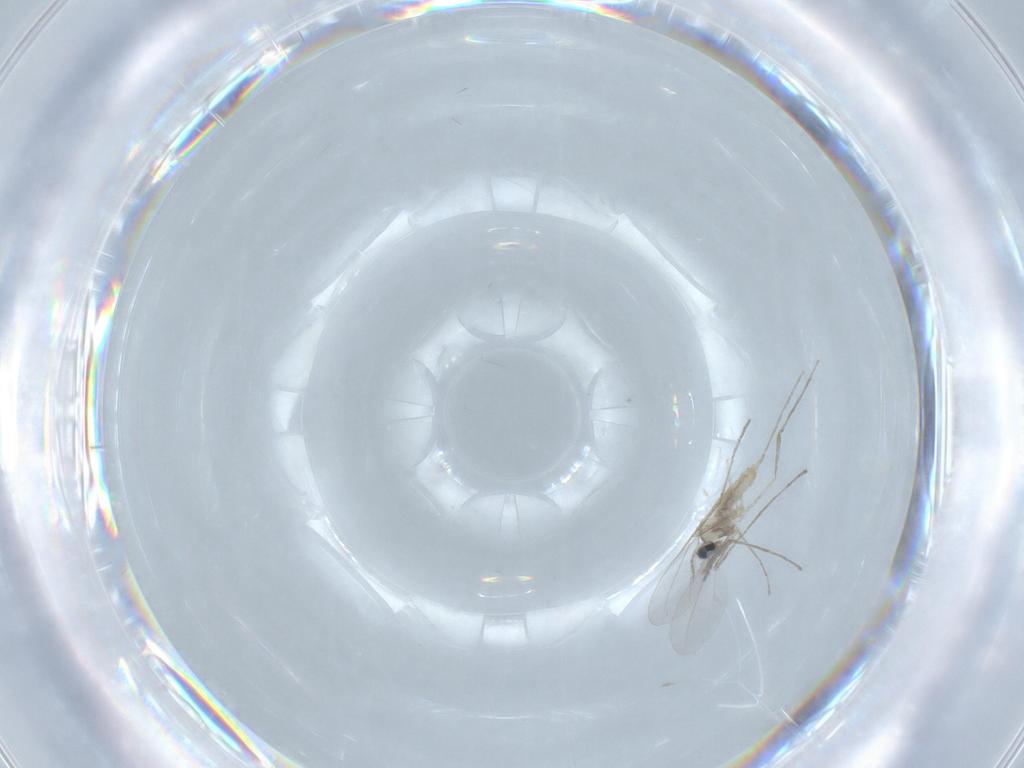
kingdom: Animalia
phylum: Arthropoda
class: Insecta
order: Diptera
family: Cecidomyiidae
